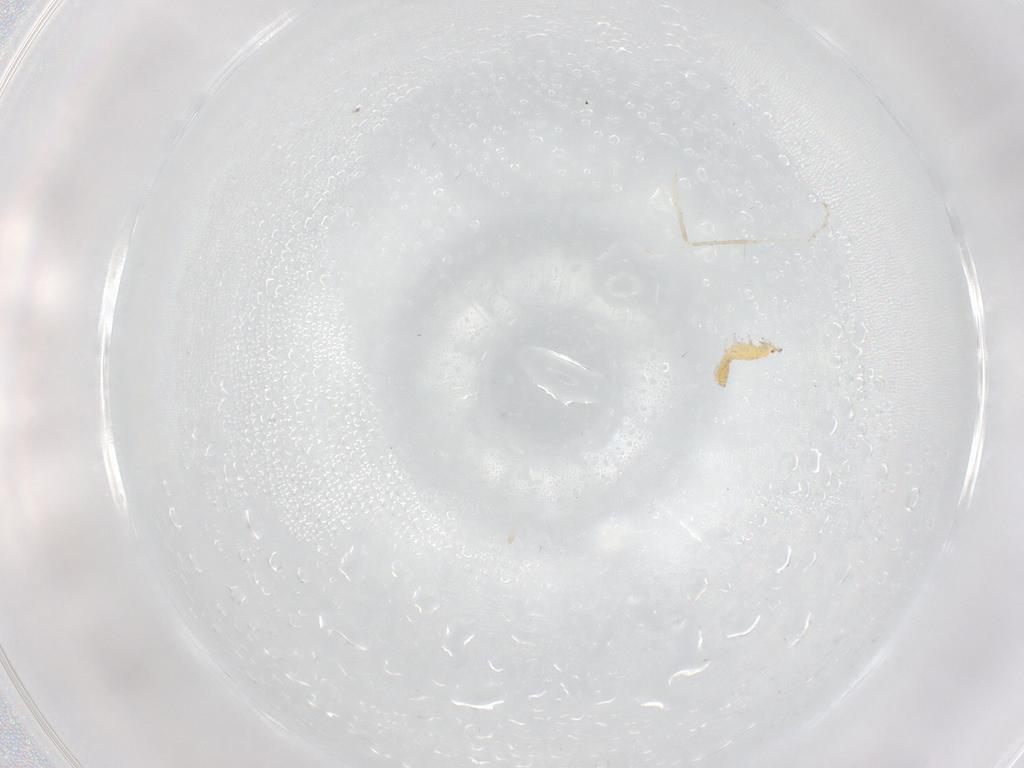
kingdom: Animalia
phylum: Arthropoda
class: Insecta
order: Diptera
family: Cecidomyiidae
